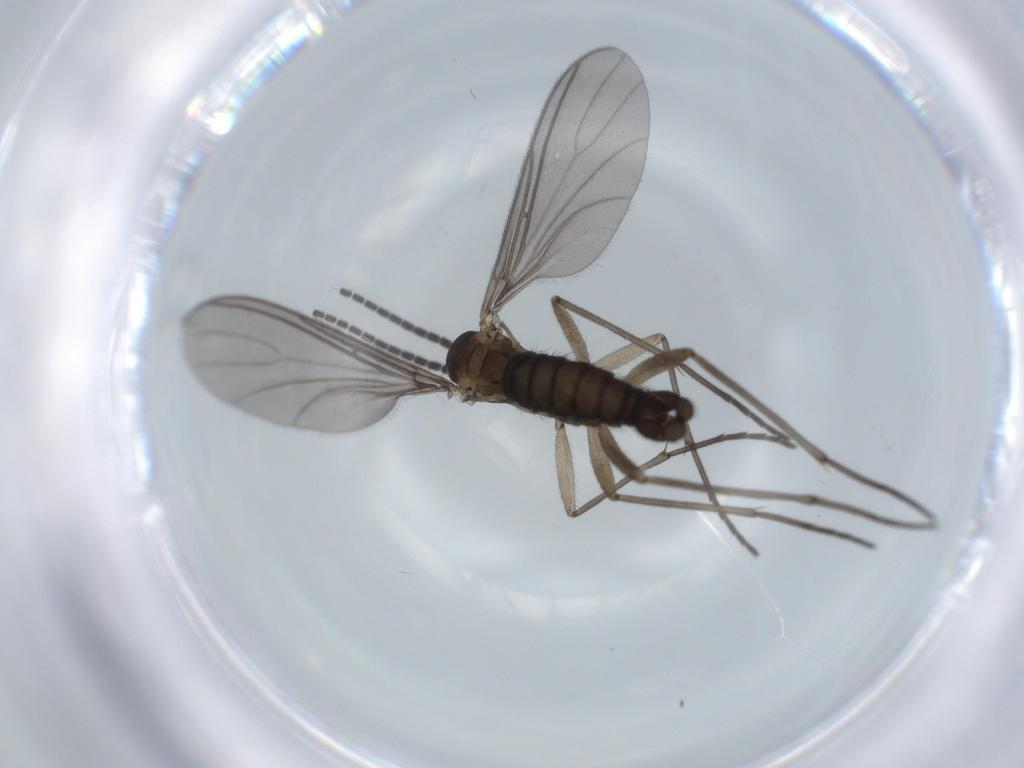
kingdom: Animalia
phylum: Arthropoda
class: Insecta
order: Diptera
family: Sciaridae
